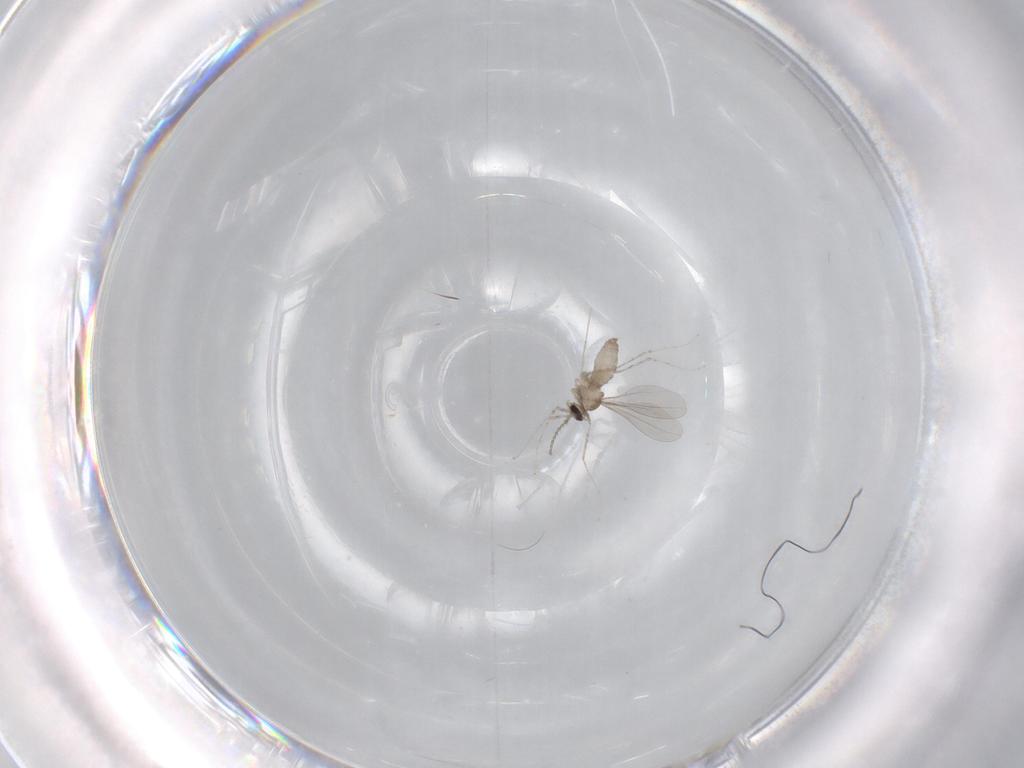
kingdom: Animalia
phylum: Arthropoda
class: Insecta
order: Diptera
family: Cecidomyiidae
